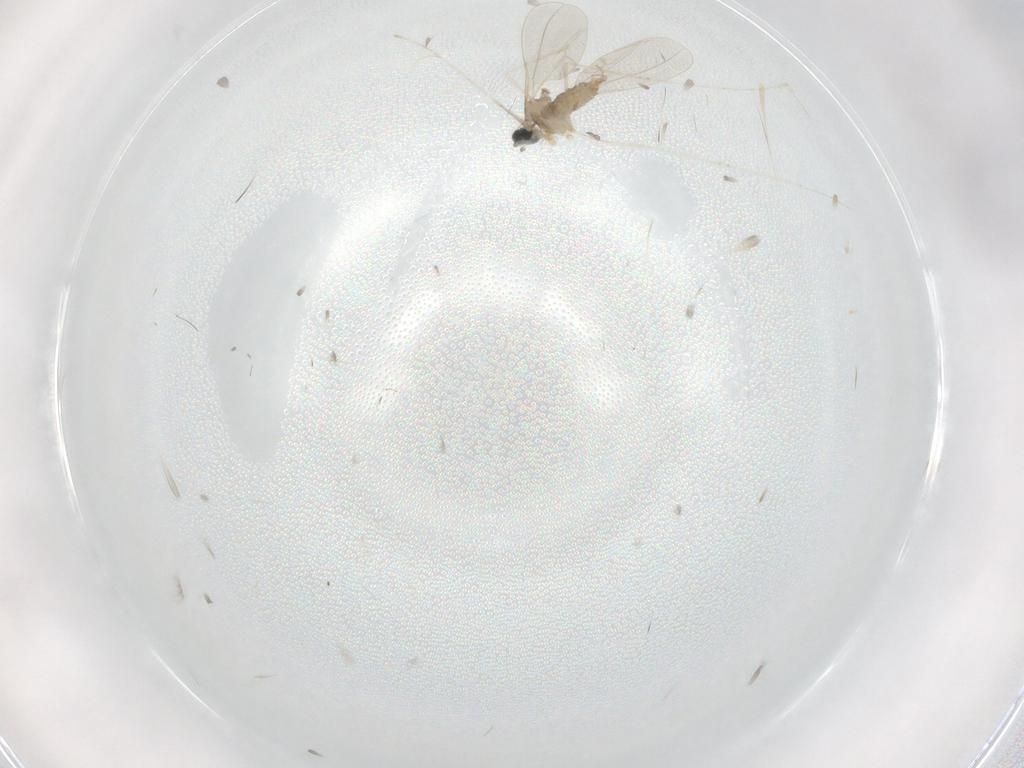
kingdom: Animalia
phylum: Arthropoda
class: Insecta
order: Diptera
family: Cecidomyiidae
